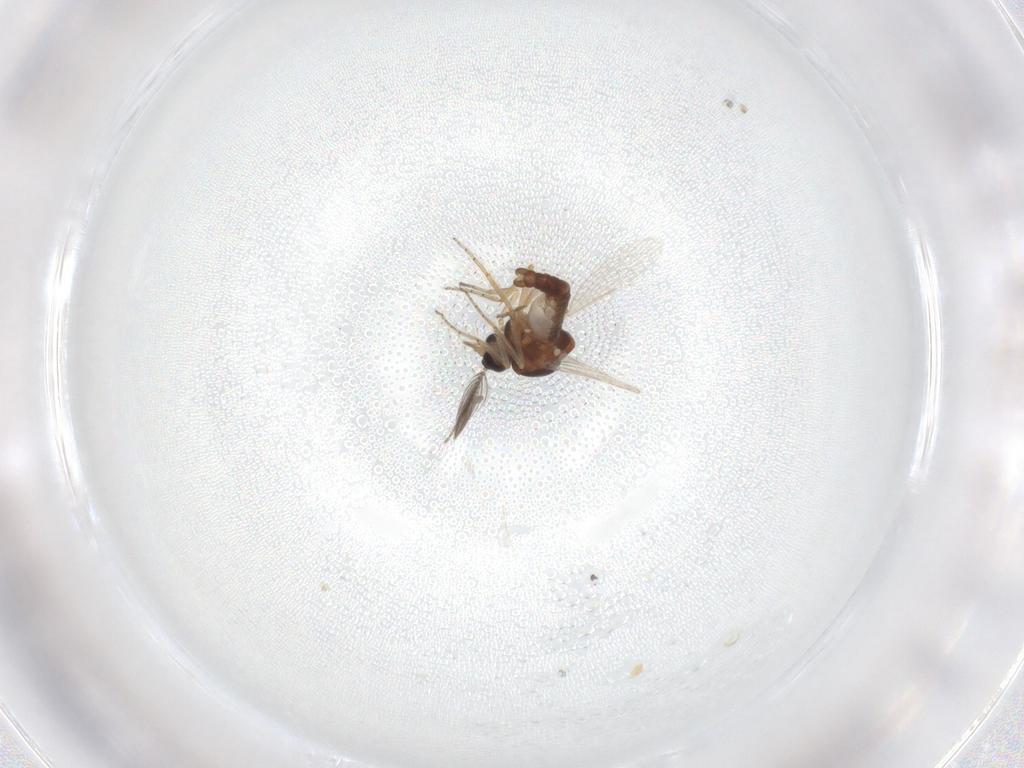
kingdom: Animalia
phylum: Arthropoda
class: Insecta
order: Diptera
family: Ceratopogonidae
